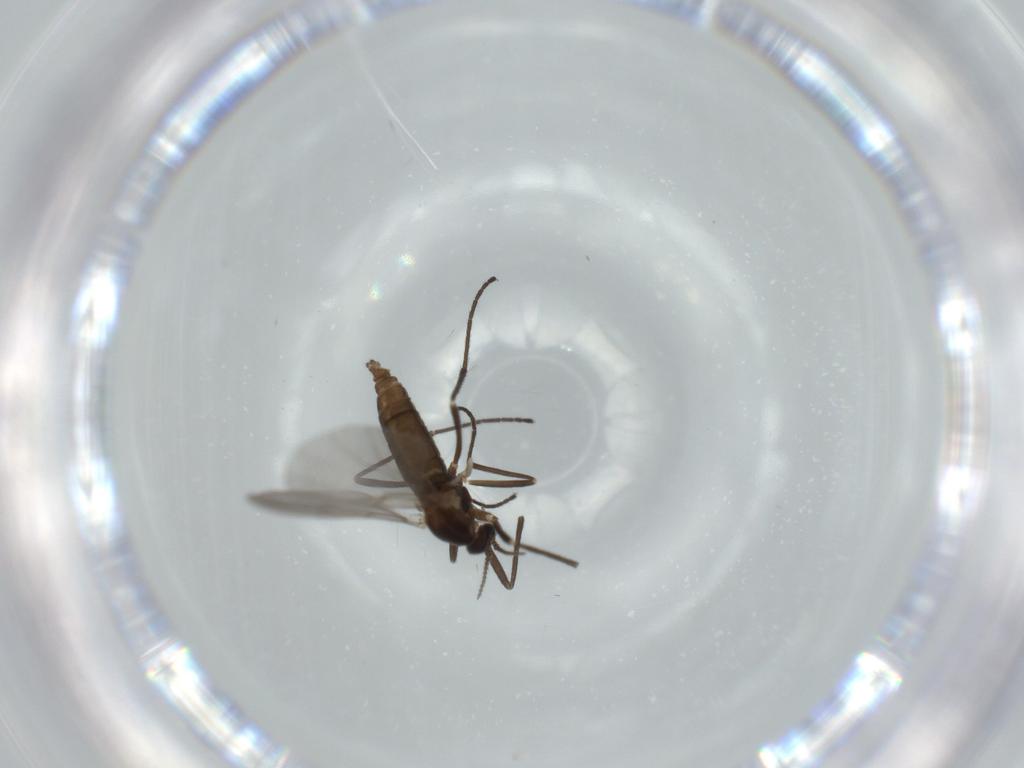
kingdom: Animalia
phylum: Arthropoda
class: Insecta
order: Diptera
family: Cecidomyiidae
